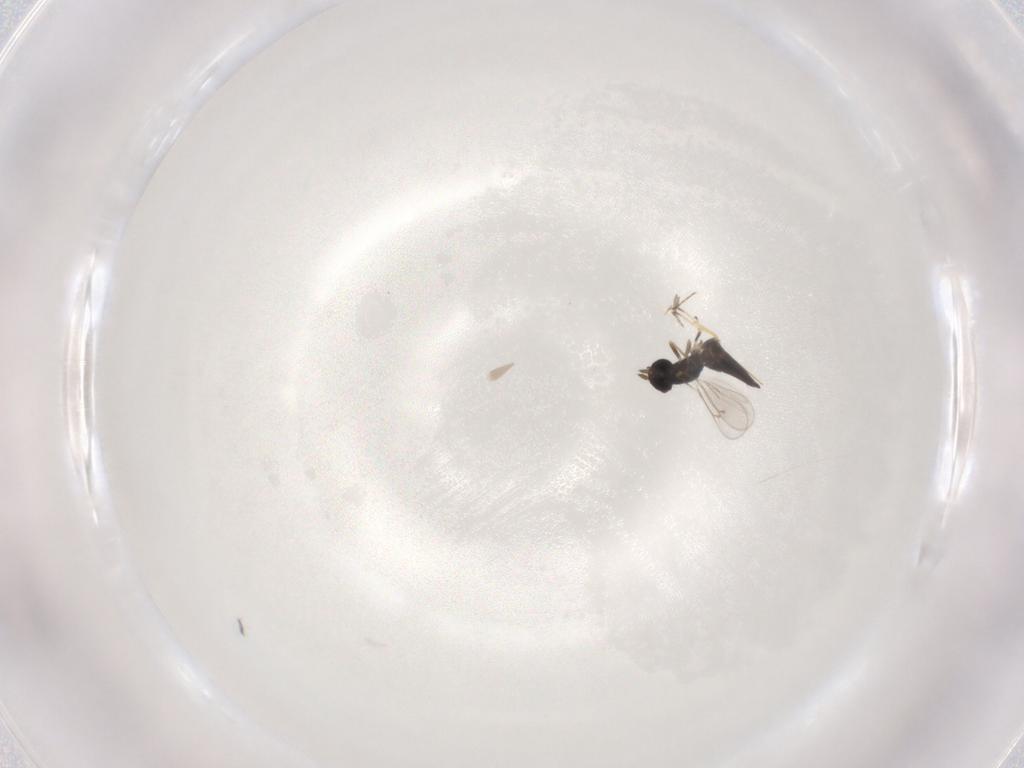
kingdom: Animalia
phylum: Arthropoda
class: Insecta
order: Hymenoptera
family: Eulophidae
